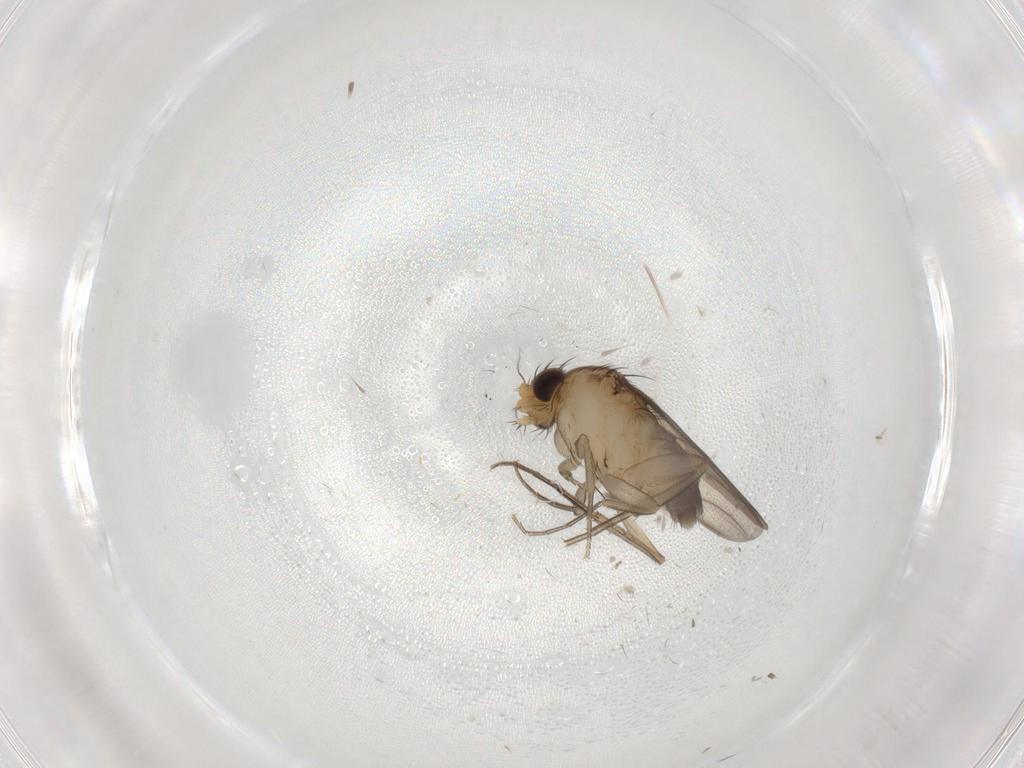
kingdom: Animalia
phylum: Arthropoda
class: Insecta
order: Diptera
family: Phoridae
